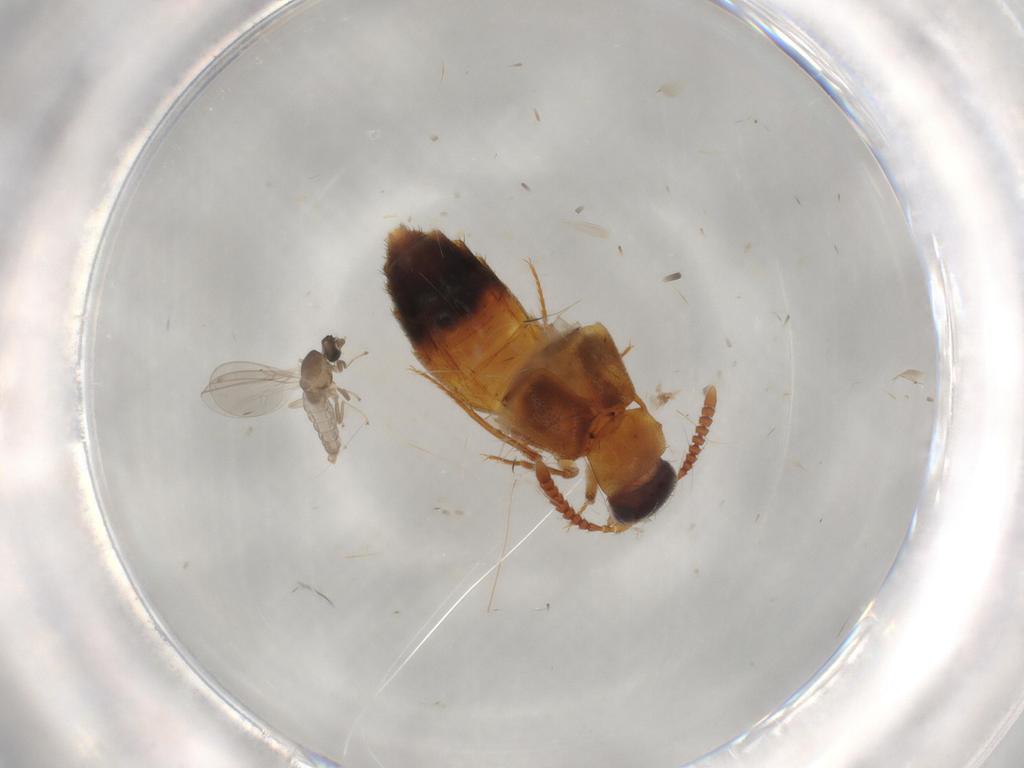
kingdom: Animalia
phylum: Arthropoda
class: Insecta
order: Diptera
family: Cecidomyiidae
